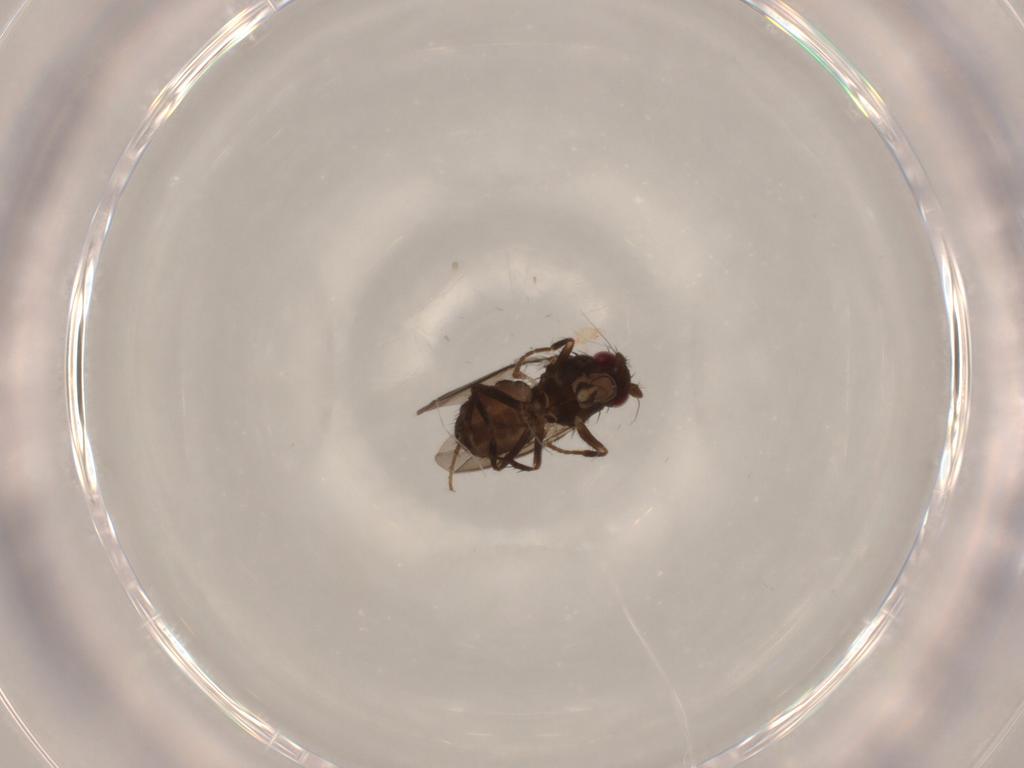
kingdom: Animalia
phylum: Arthropoda
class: Insecta
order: Diptera
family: Sphaeroceridae
